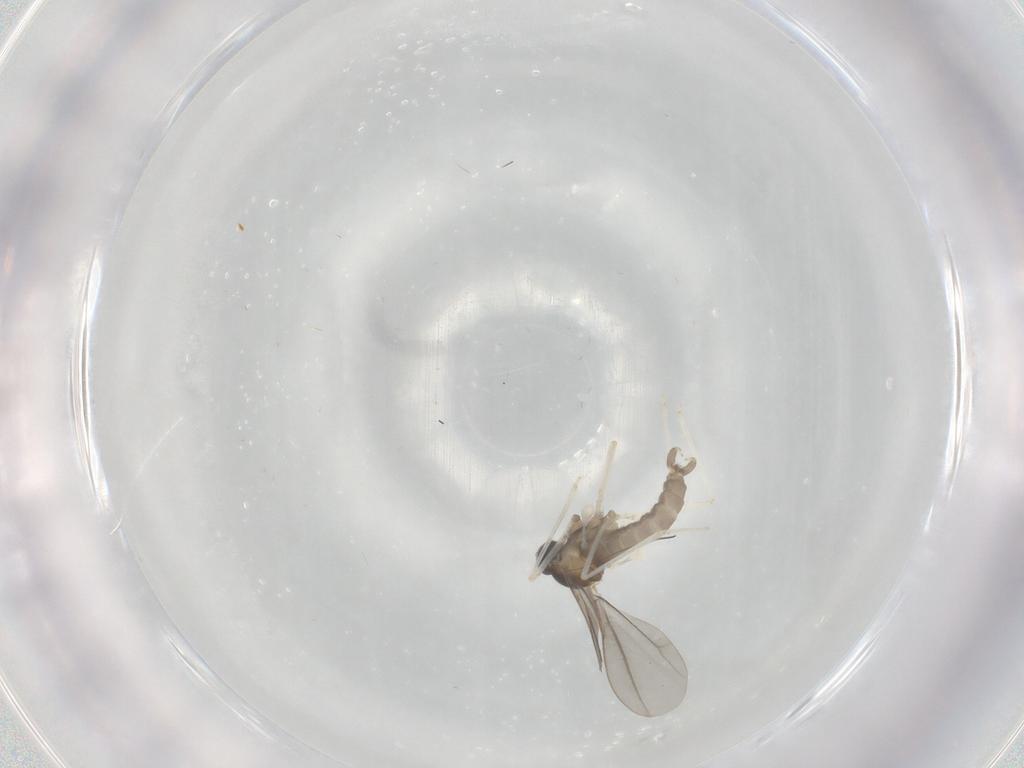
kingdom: Animalia
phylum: Arthropoda
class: Insecta
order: Diptera
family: Cecidomyiidae
